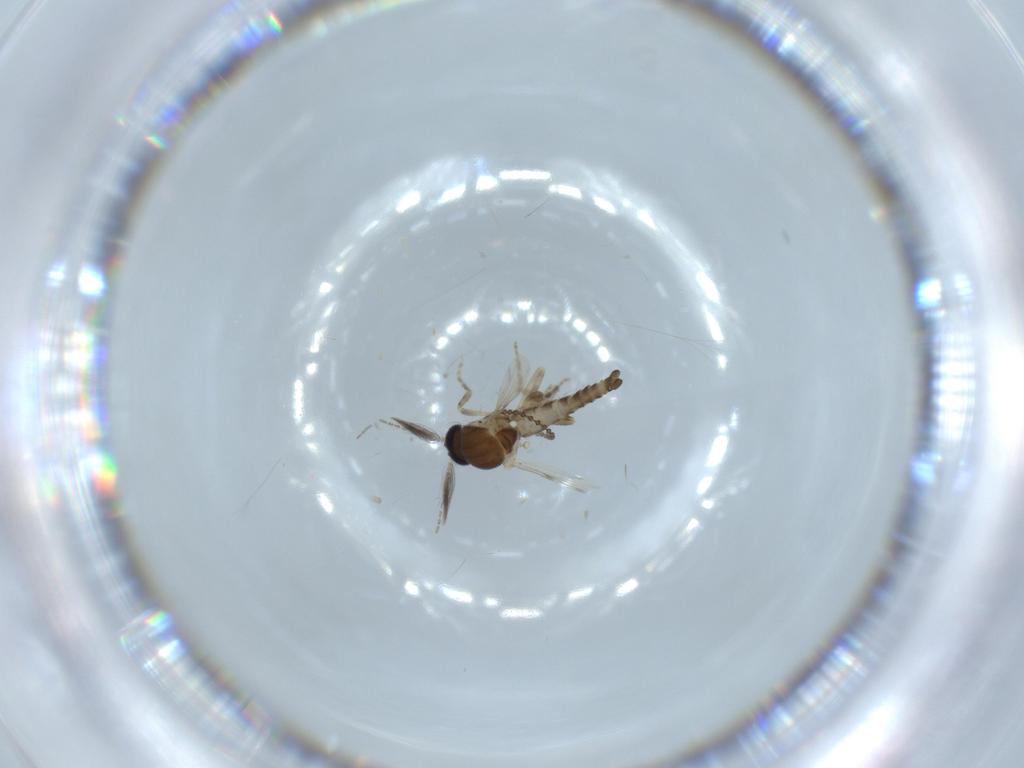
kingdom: Animalia
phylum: Arthropoda
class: Insecta
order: Diptera
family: Ceratopogonidae
